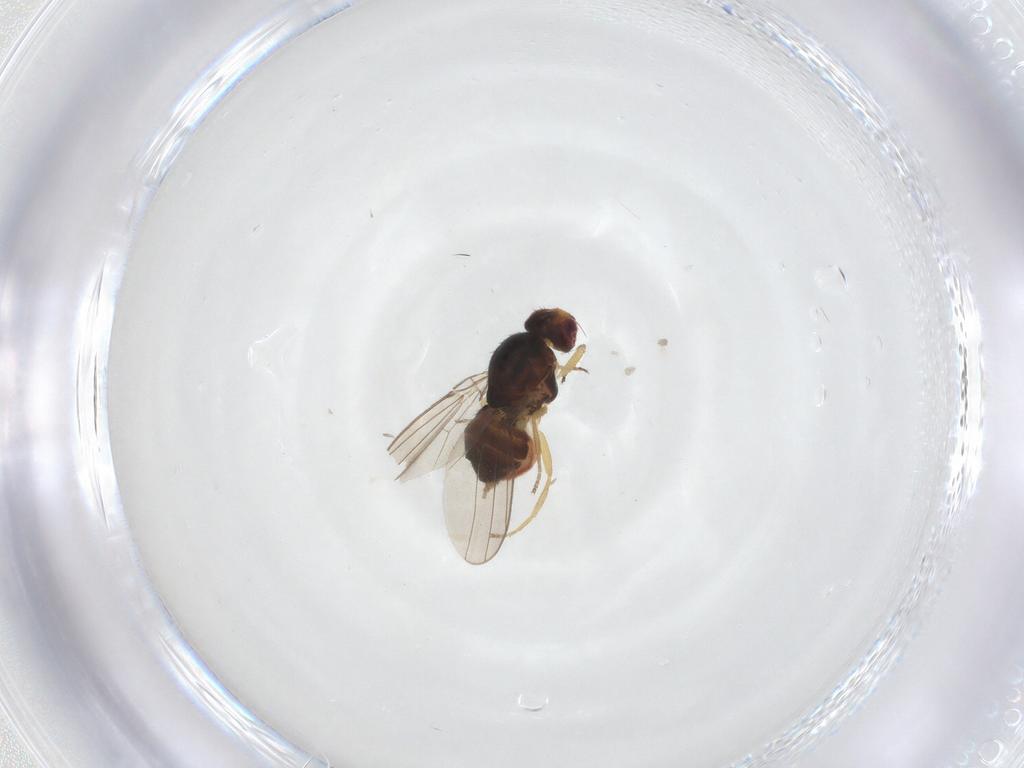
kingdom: Animalia
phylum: Arthropoda
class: Insecta
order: Diptera
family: Chloropidae
